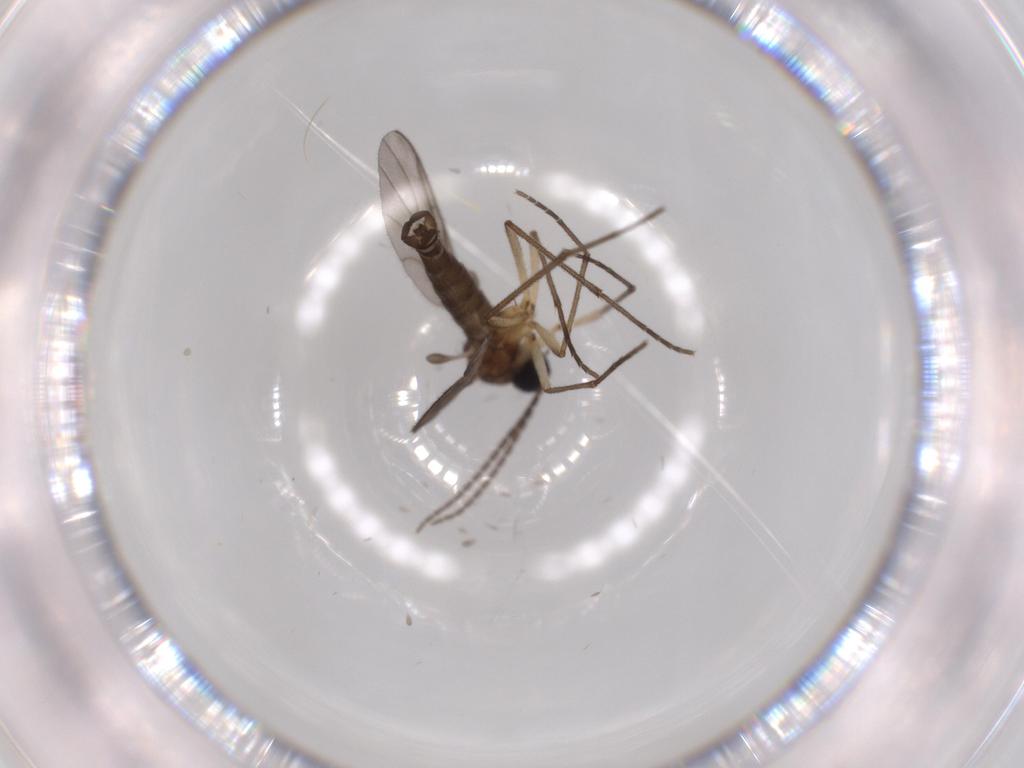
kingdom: Animalia
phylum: Arthropoda
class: Insecta
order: Diptera
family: Sciaridae
